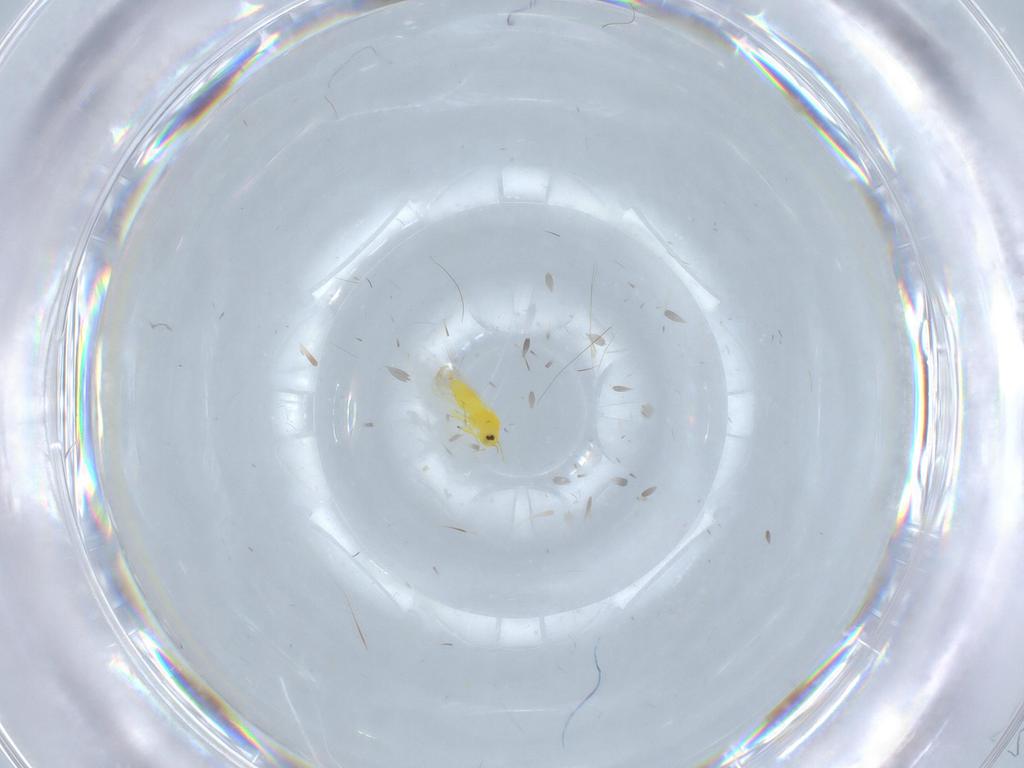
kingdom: Animalia
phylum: Arthropoda
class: Insecta
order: Hemiptera
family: Aleyrodidae
